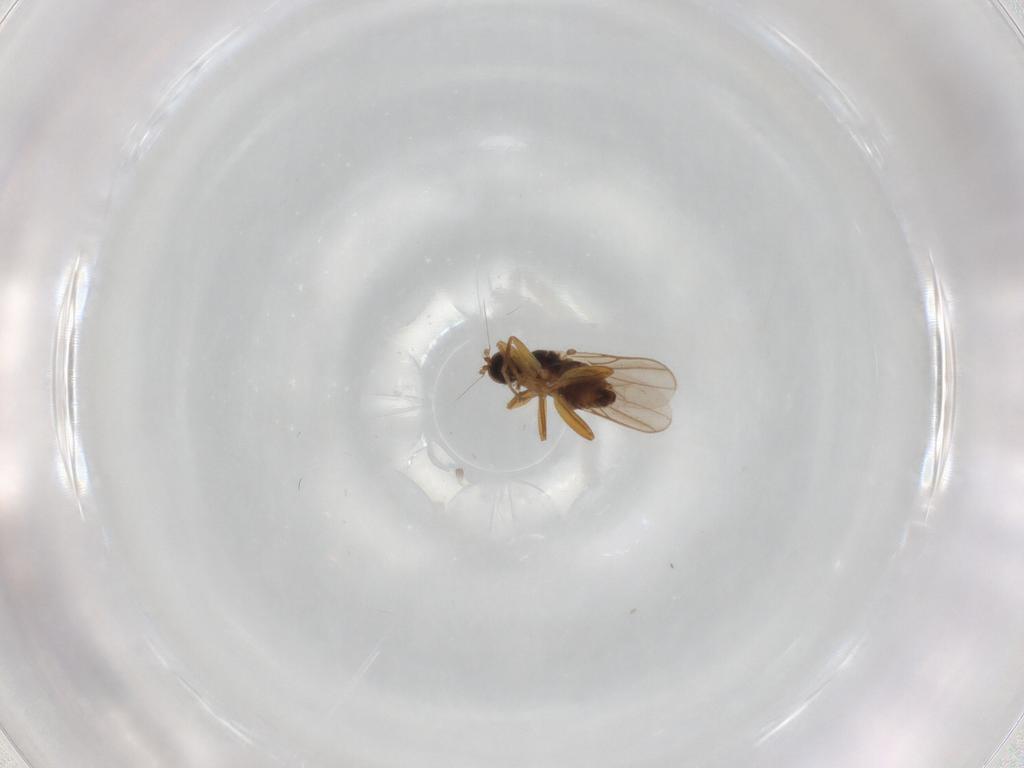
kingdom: Animalia
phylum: Arthropoda
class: Insecta
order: Diptera
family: Hybotidae
